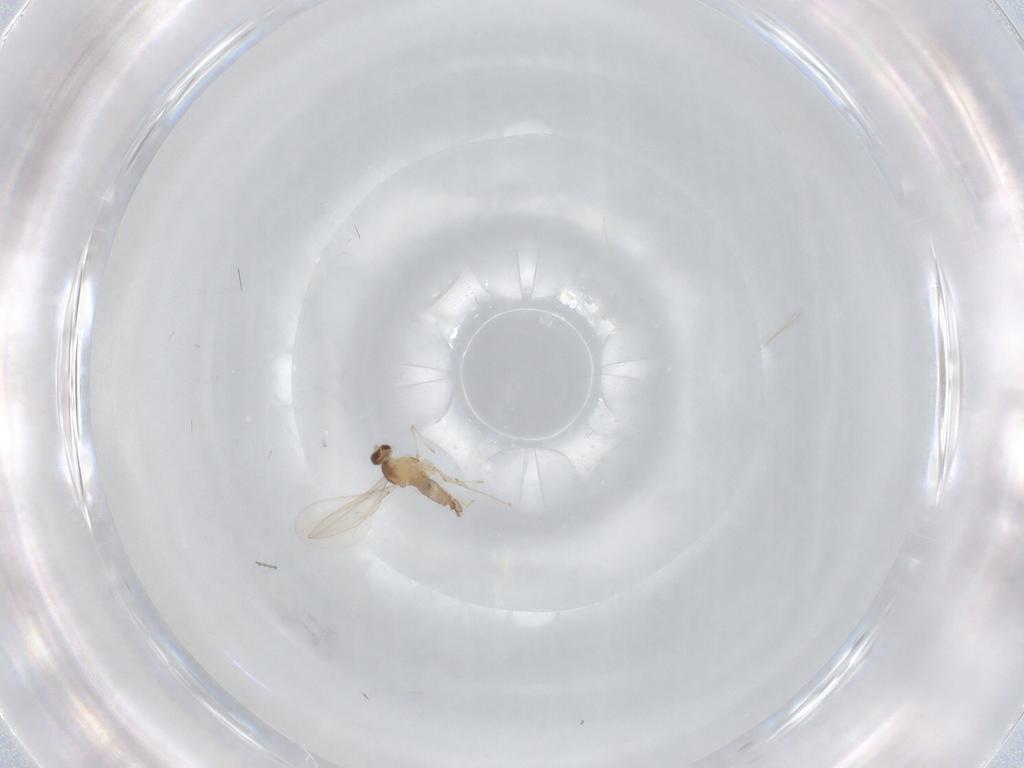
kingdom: Animalia
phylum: Arthropoda
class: Insecta
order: Diptera
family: Cecidomyiidae
